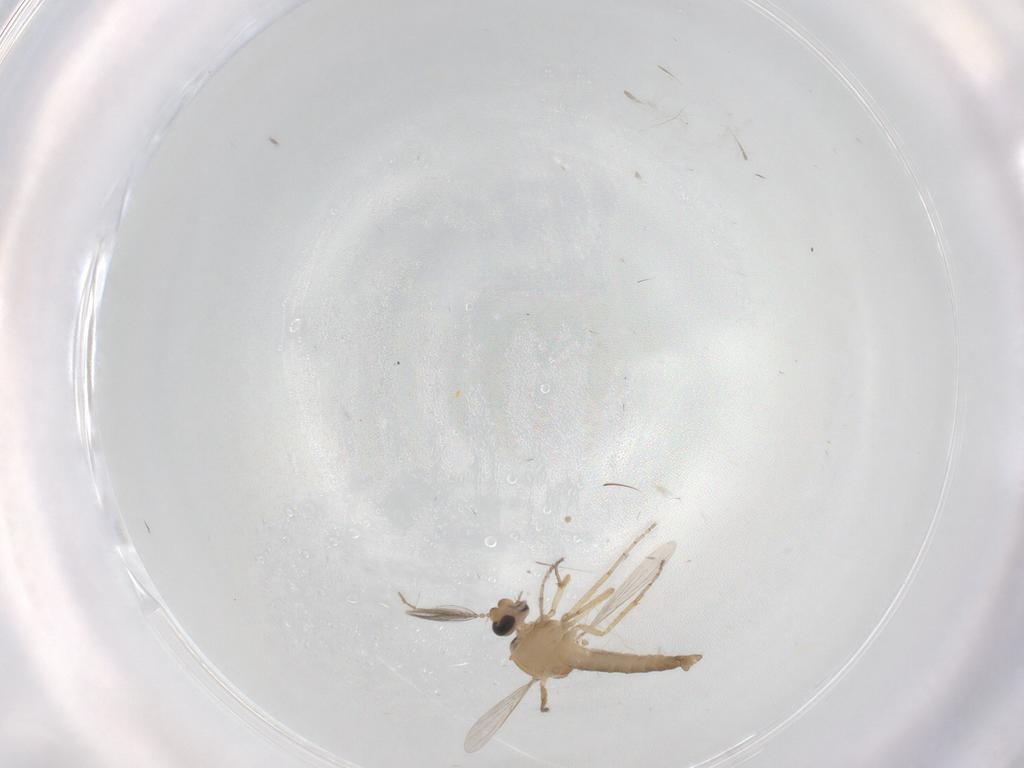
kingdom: Animalia
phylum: Arthropoda
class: Insecta
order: Diptera
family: Ceratopogonidae
